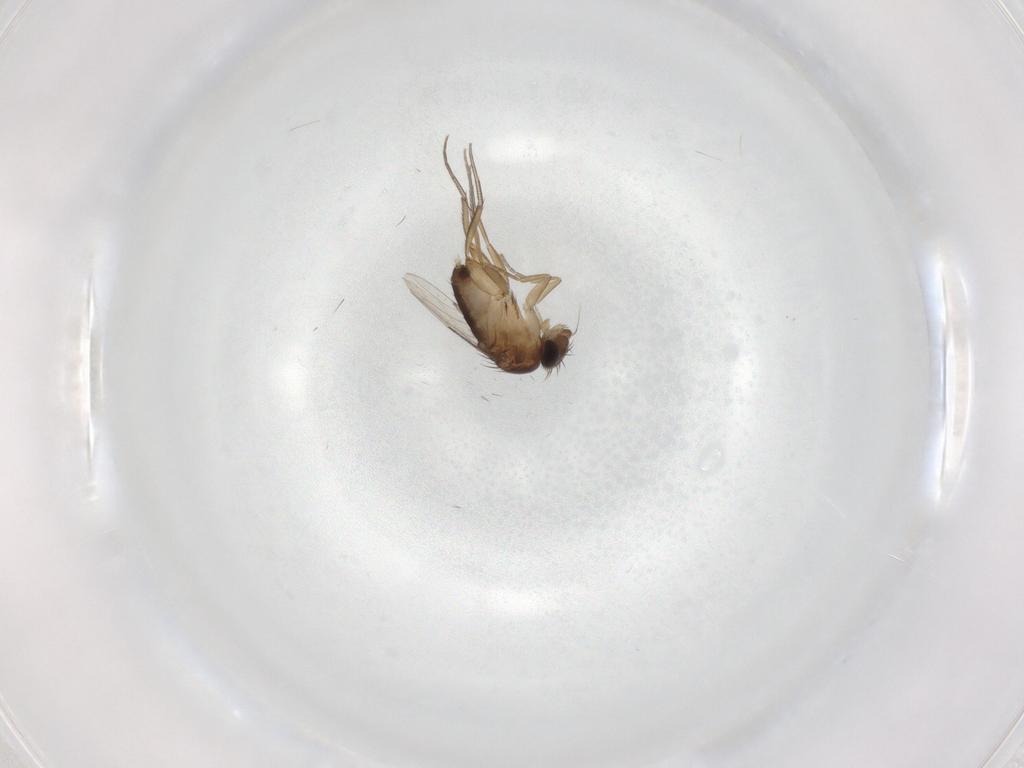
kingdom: Animalia
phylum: Arthropoda
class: Insecta
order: Diptera
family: Phoridae
